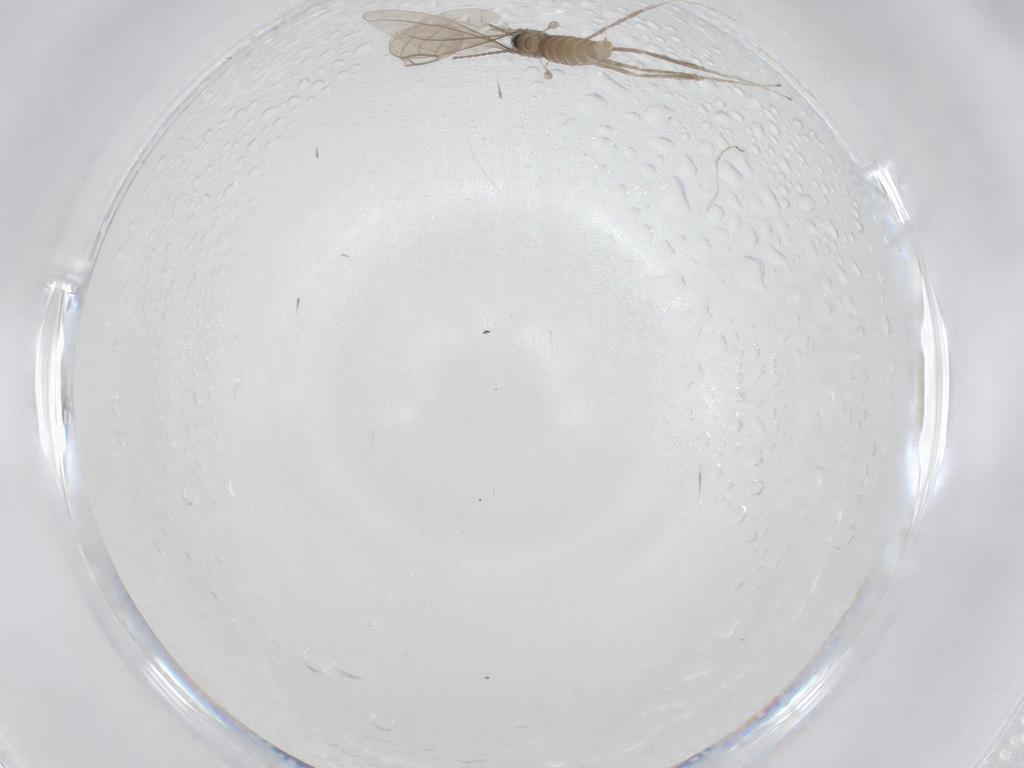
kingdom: Animalia
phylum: Arthropoda
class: Insecta
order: Diptera
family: Cecidomyiidae
